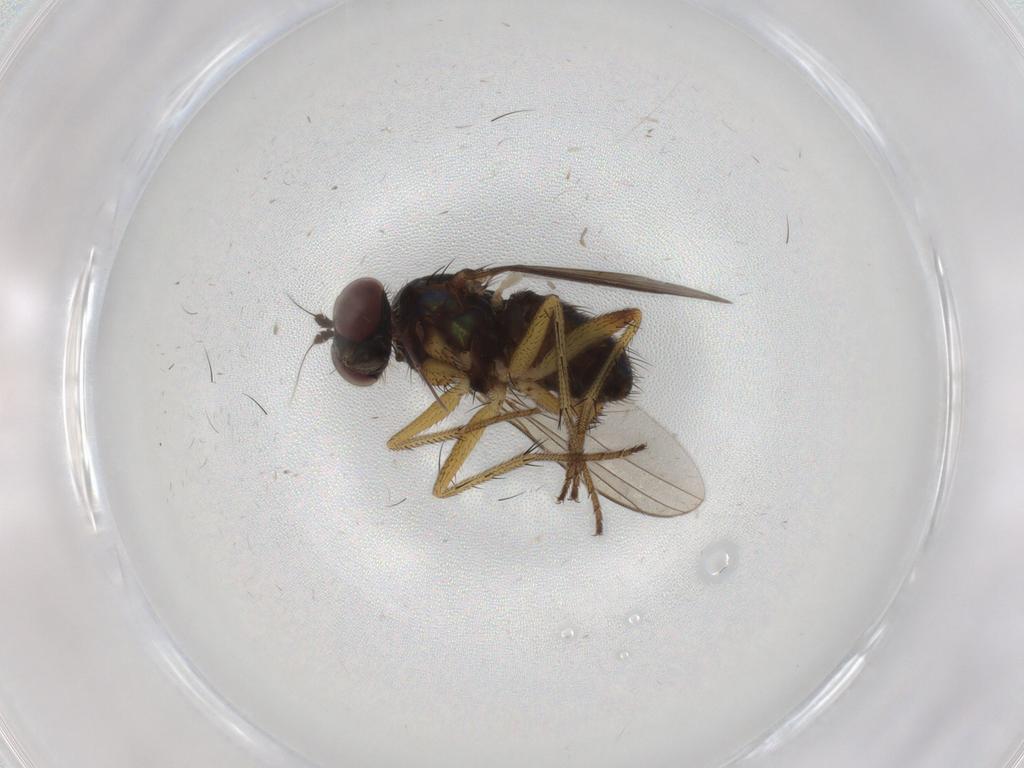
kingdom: Animalia
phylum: Arthropoda
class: Insecta
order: Diptera
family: Dolichopodidae
